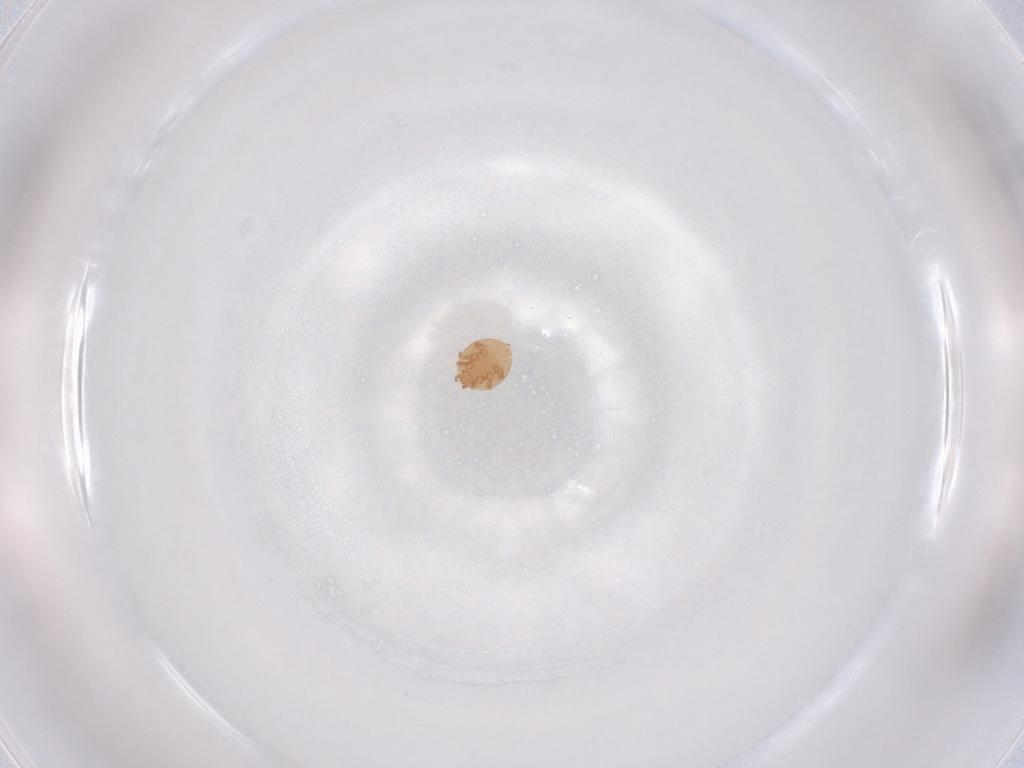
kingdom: Animalia
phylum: Arthropoda
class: Arachnida
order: Mesostigmata
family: Trematuridae
